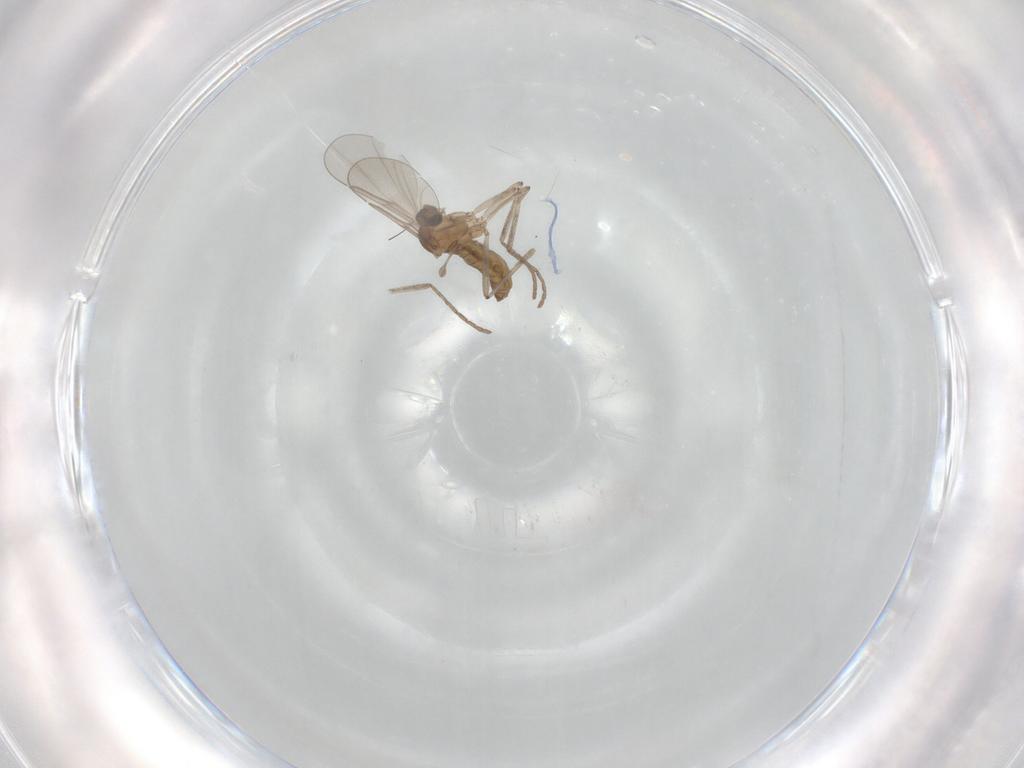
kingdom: Animalia
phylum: Arthropoda
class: Insecta
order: Diptera
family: Cecidomyiidae
